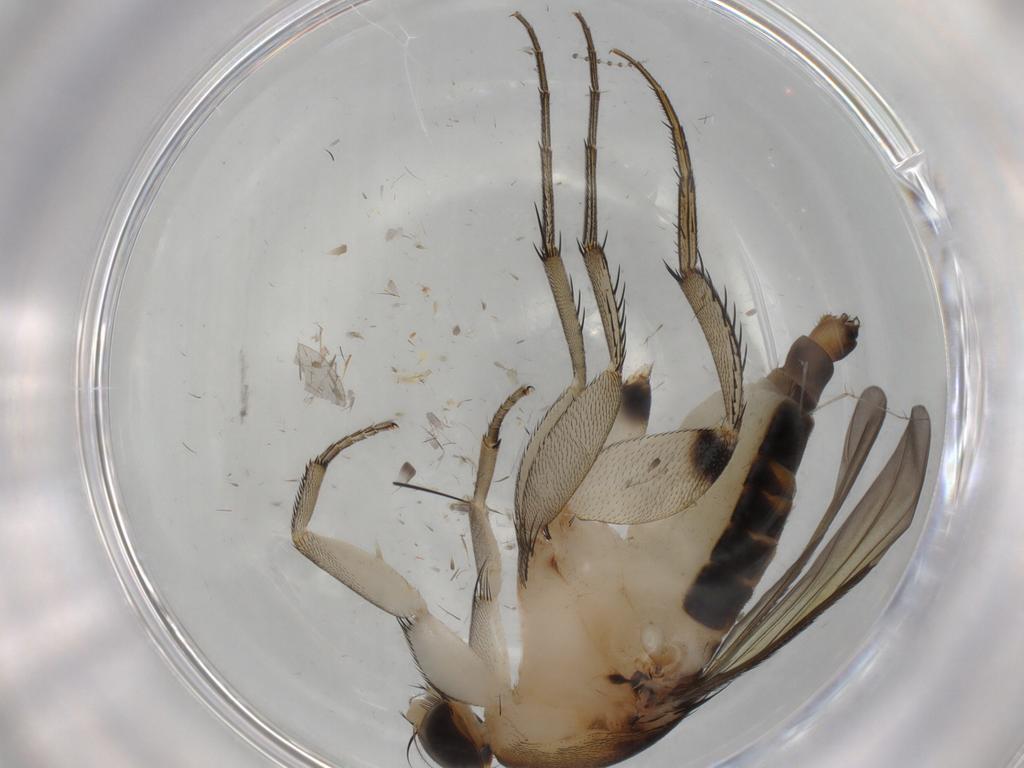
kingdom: Animalia
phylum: Arthropoda
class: Insecta
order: Diptera
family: Phoridae
